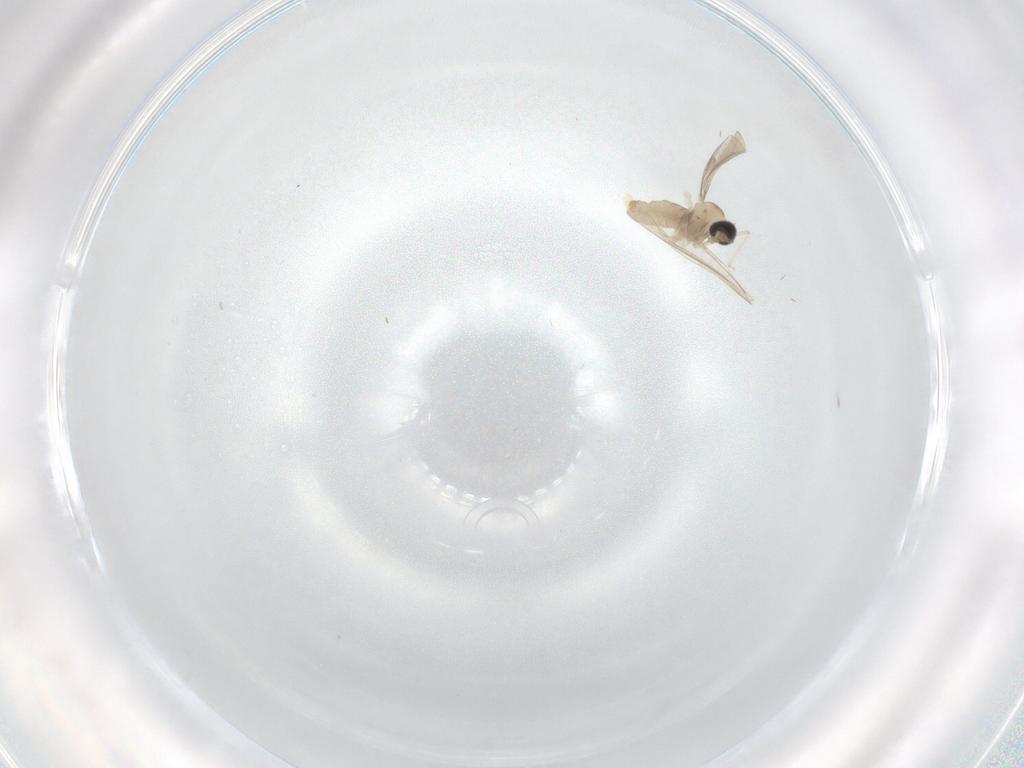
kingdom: Animalia
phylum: Arthropoda
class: Insecta
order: Diptera
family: Cecidomyiidae
